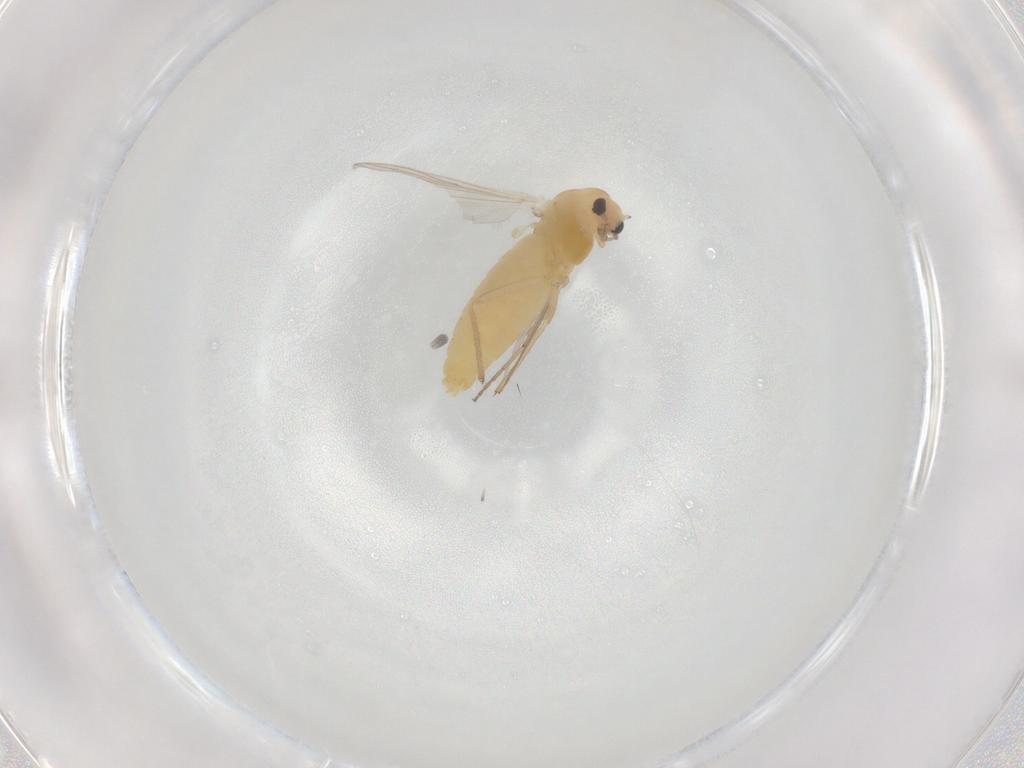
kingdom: Animalia
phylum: Arthropoda
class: Insecta
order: Diptera
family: Chironomidae
